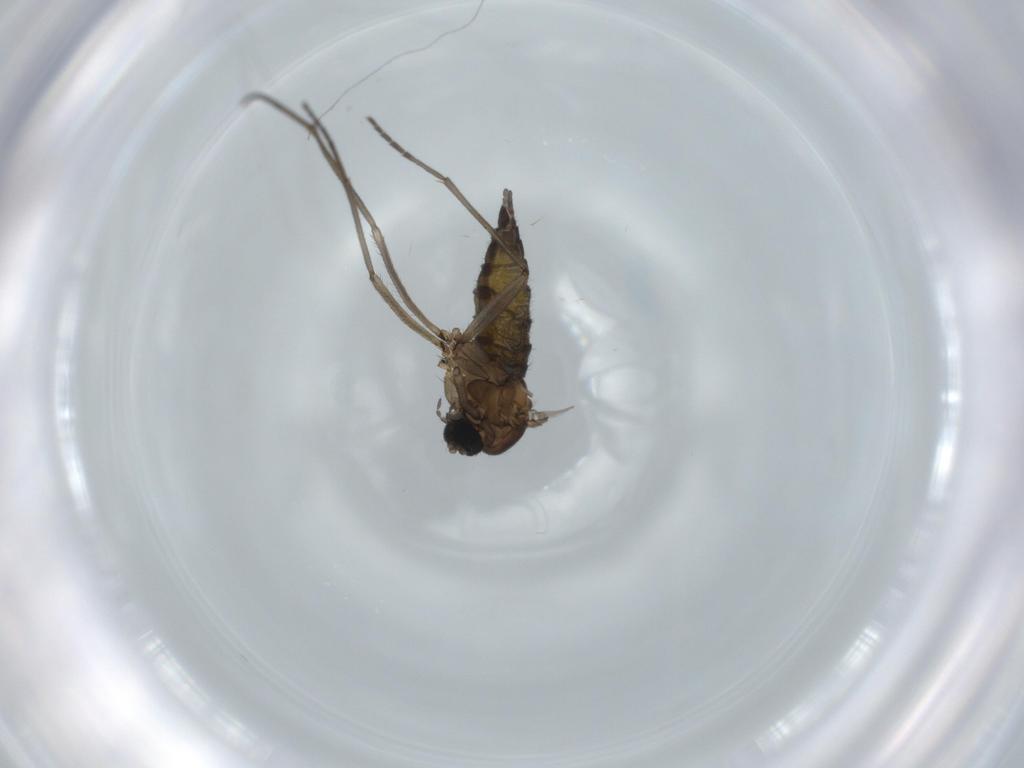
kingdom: Animalia
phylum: Arthropoda
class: Insecta
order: Diptera
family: Sciaridae
